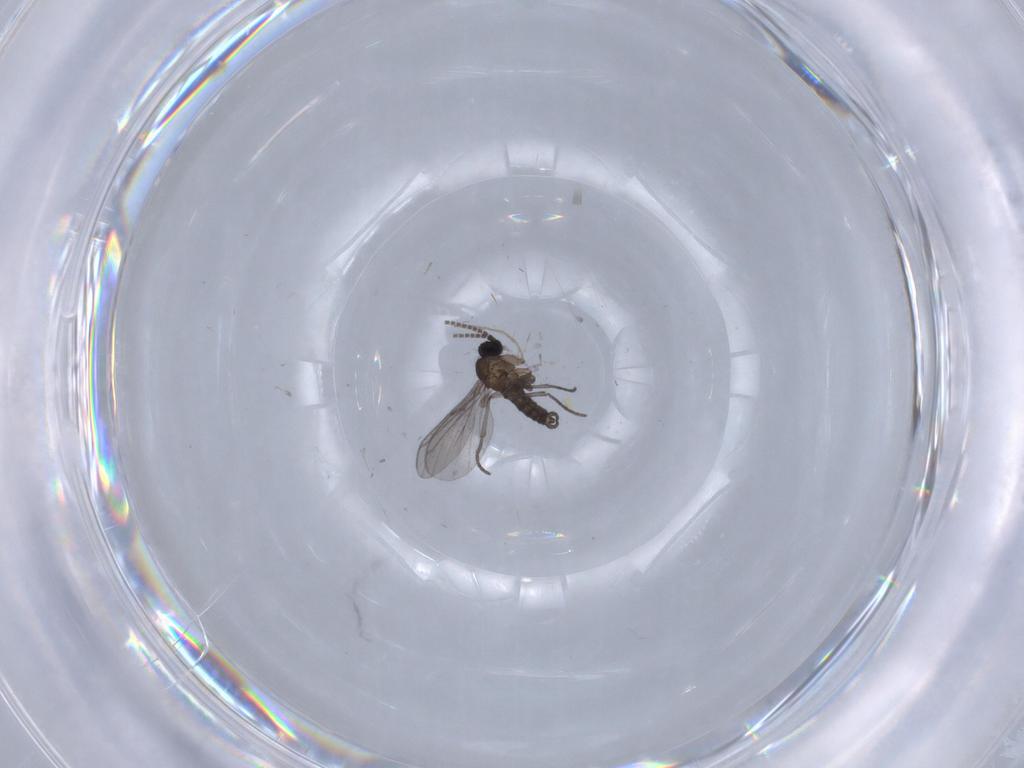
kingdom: Animalia
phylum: Arthropoda
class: Insecta
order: Diptera
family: Chironomidae
